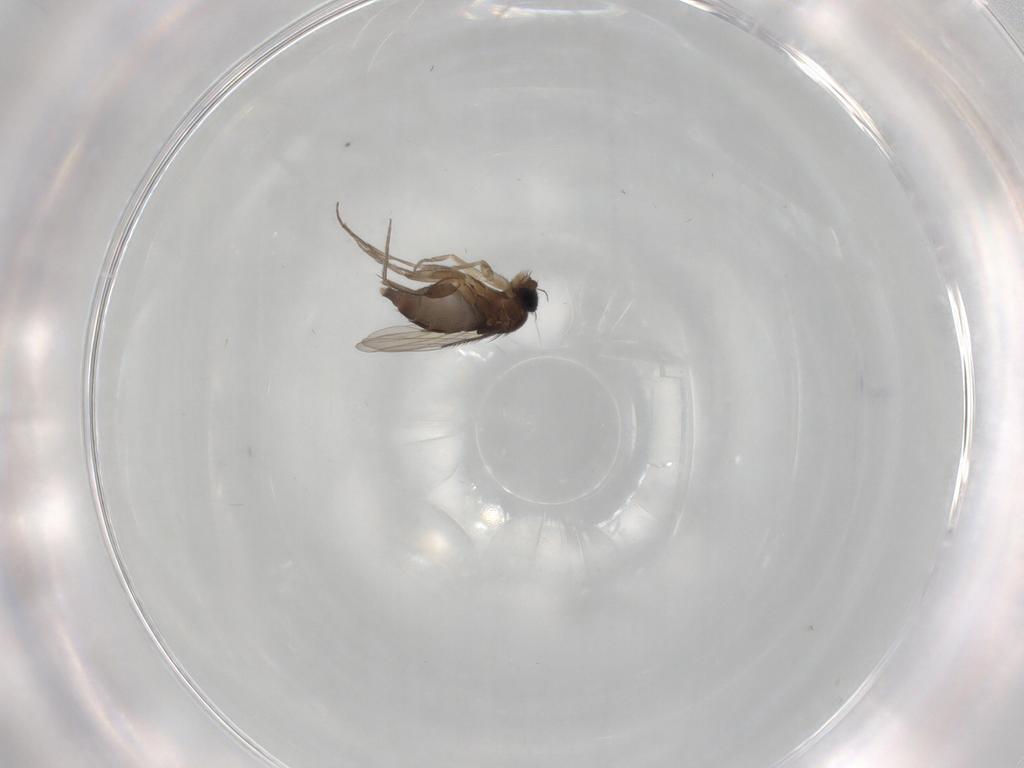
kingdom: Animalia
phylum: Arthropoda
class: Insecta
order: Diptera
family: Phoridae
